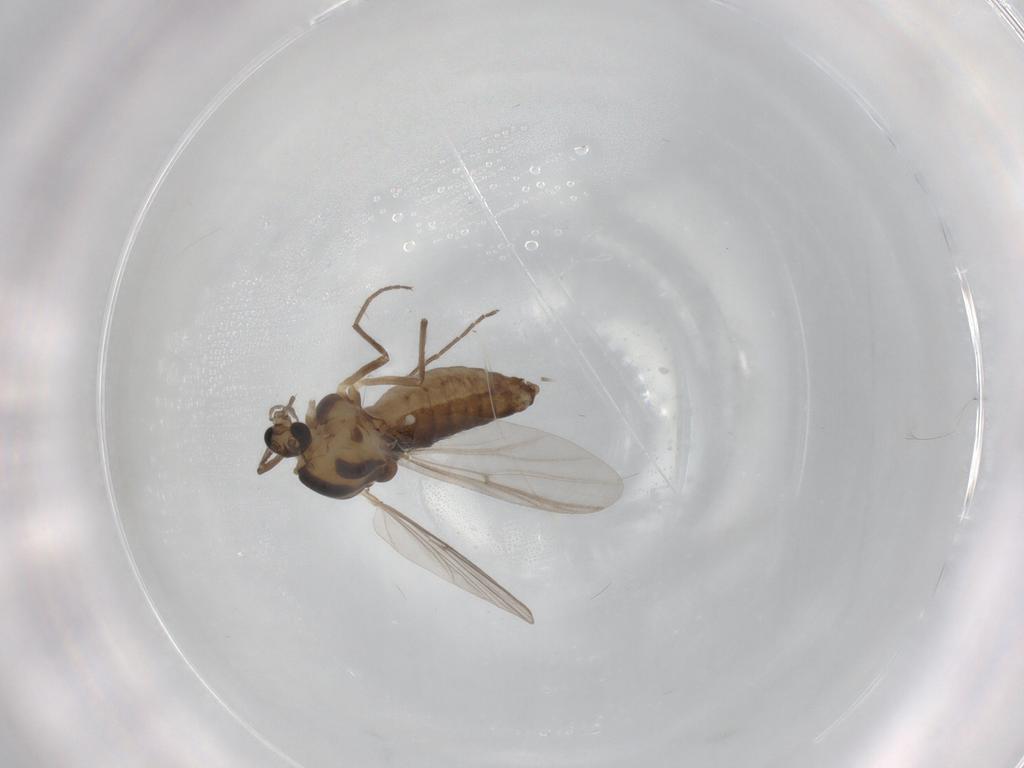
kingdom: Animalia
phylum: Arthropoda
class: Insecta
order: Diptera
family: Chironomidae
